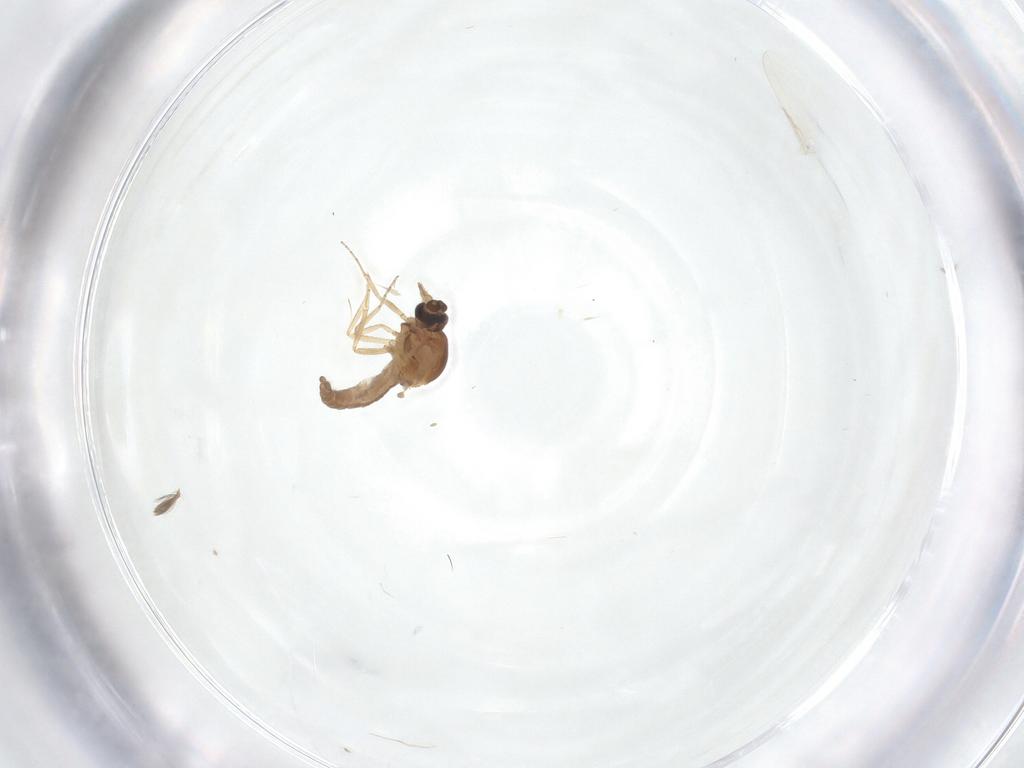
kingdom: Animalia
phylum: Arthropoda
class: Insecta
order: Diptera
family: Ceratopogonidae
